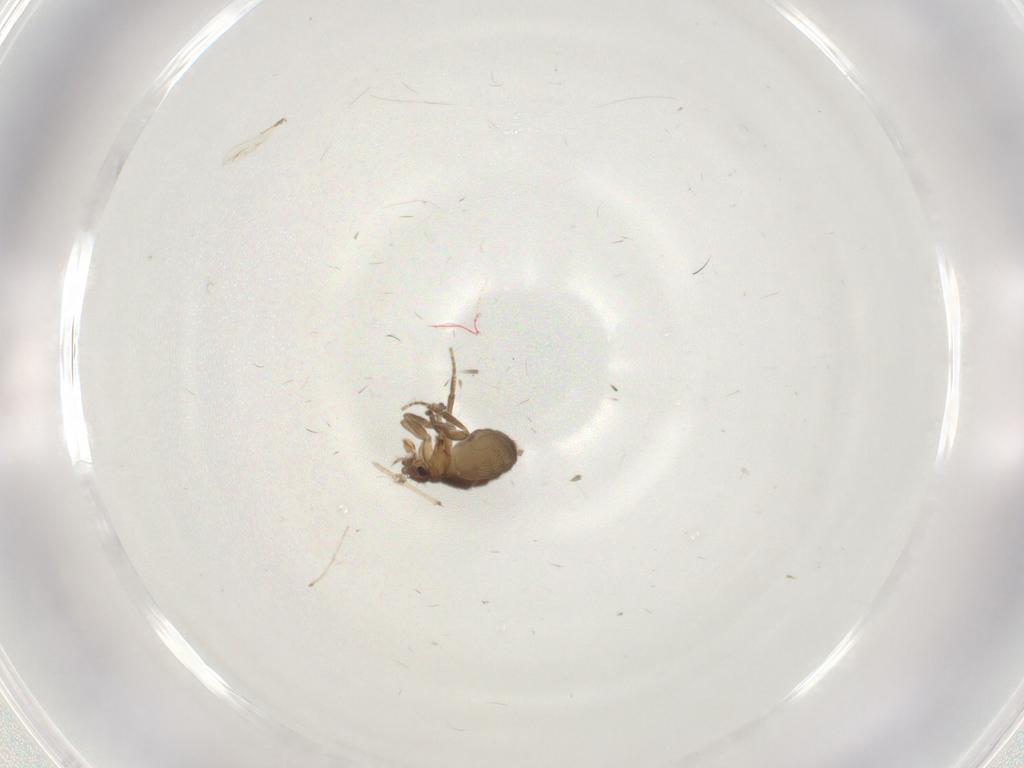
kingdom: Animalia
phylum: Arthropoda
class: Insecta
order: Diptera
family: Phoridae
